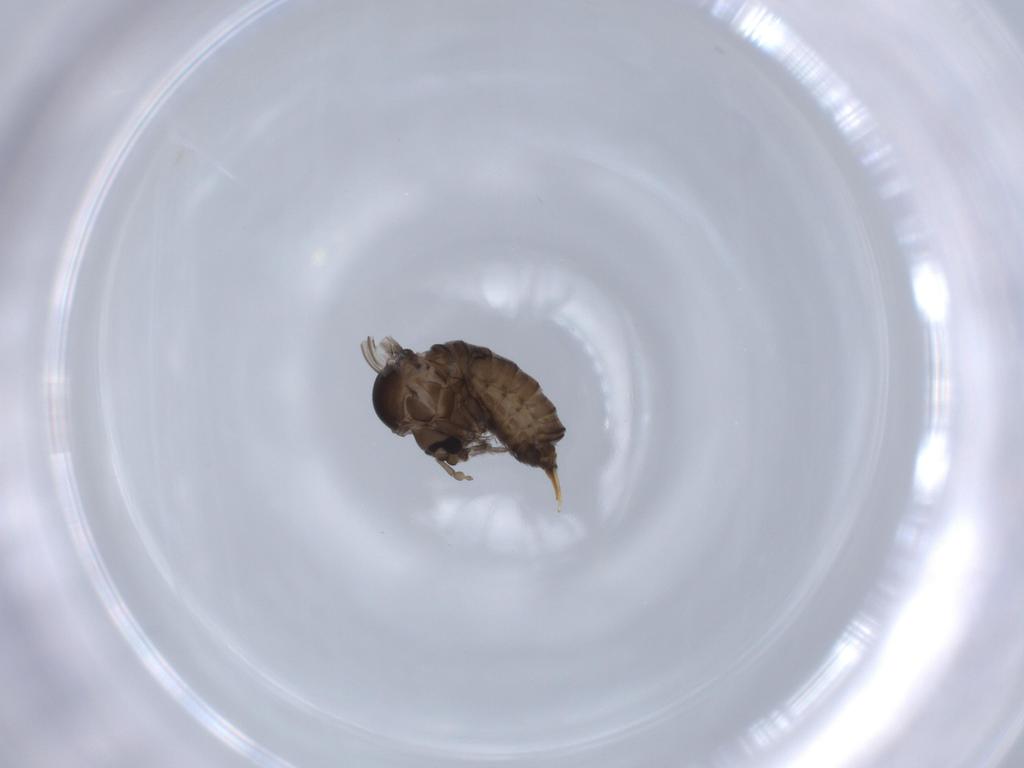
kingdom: Animalia
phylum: Arthropoda
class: Insecta
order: Diptera
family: Psychodidae
